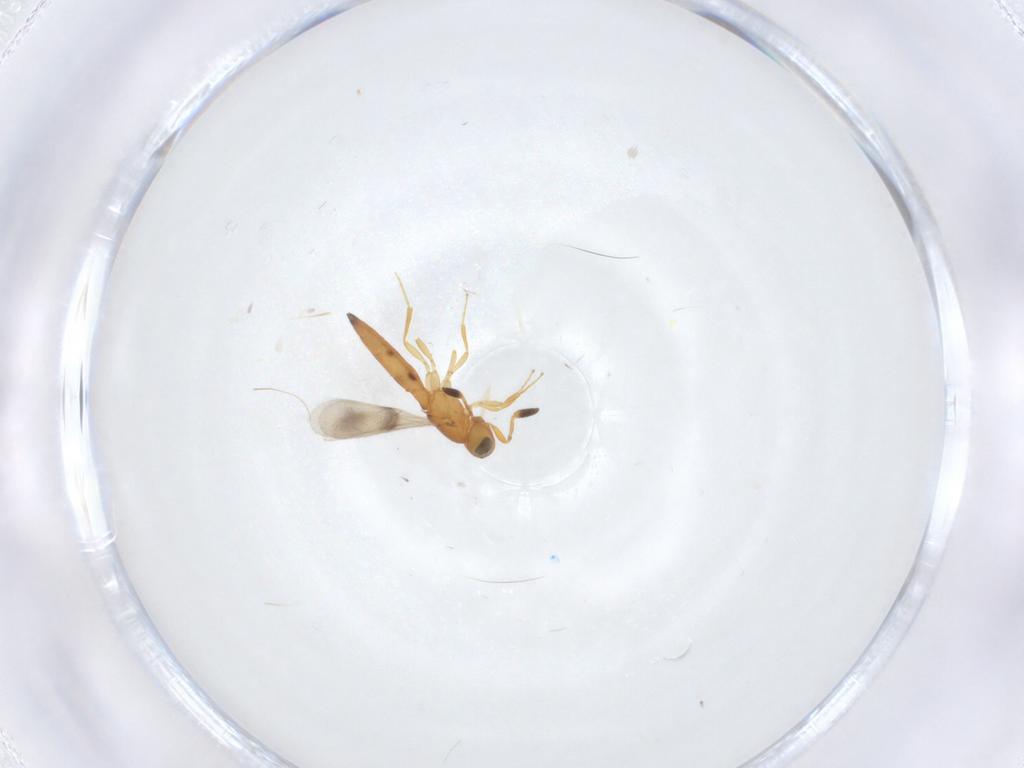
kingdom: Animalia
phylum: Arthropoda
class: Insecta
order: Hymenoptera
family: Scelionidae
